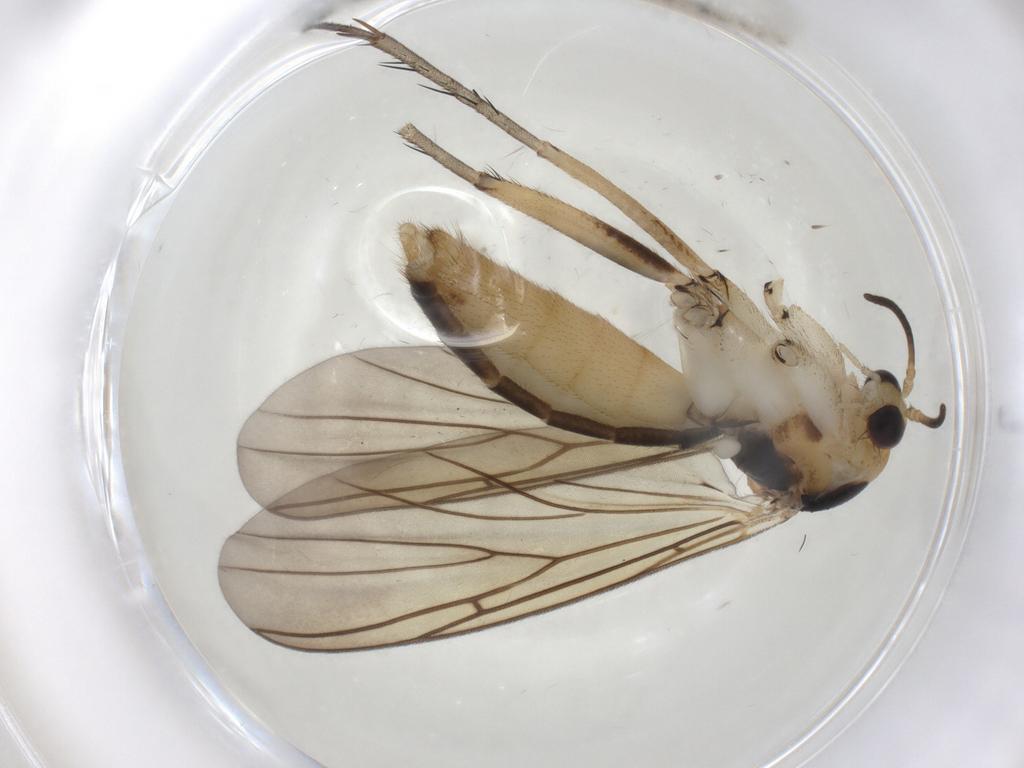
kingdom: Animalia
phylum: Arthropoda
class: Insecta
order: Diptera
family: Mycetophilidae
